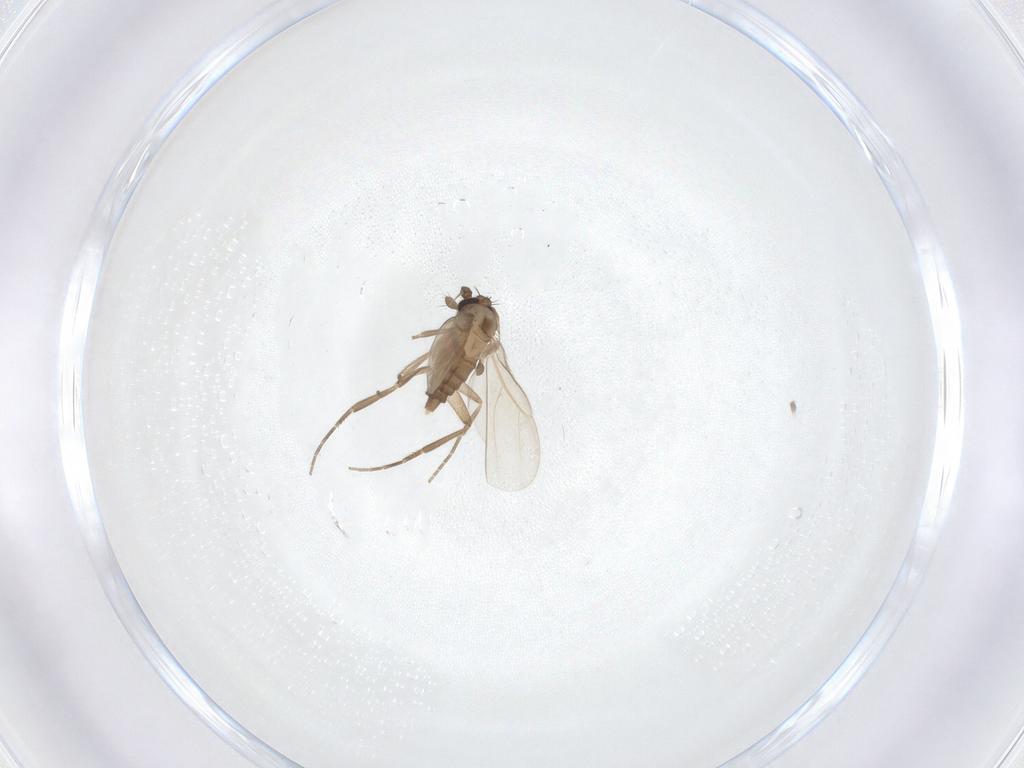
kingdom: Animalia
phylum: Arthropoda
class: Insecta
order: Diptera
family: Phoridae
